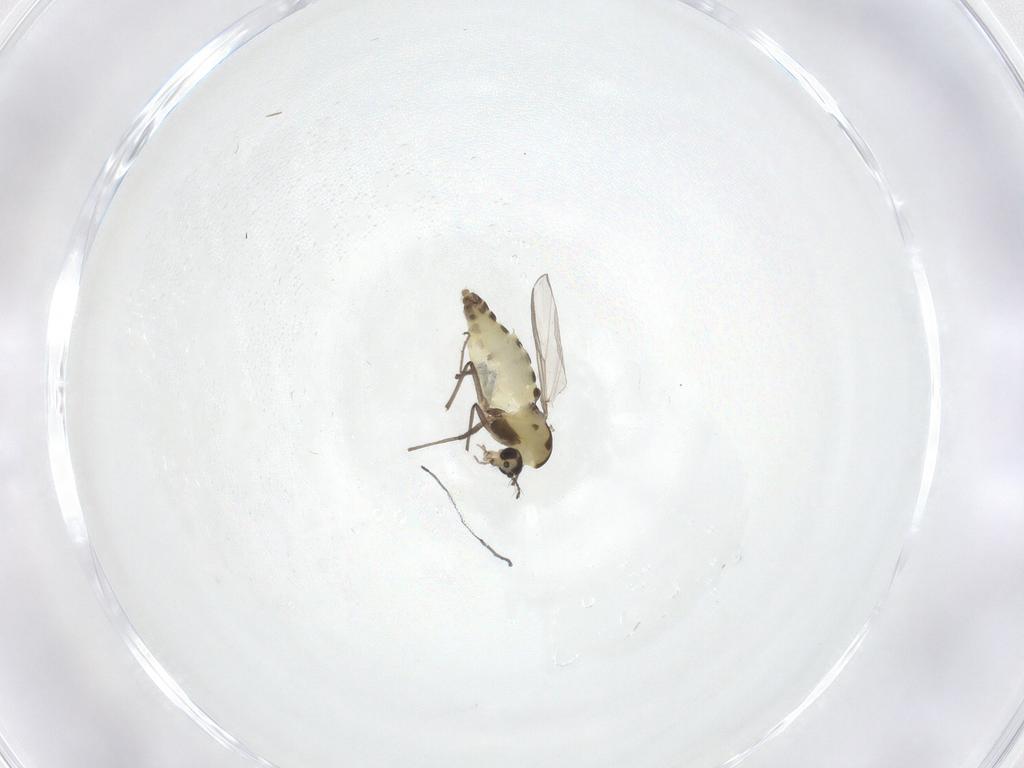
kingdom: Animalia
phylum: Arthropoda
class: Insecta
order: Diptera
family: Chironomidae
